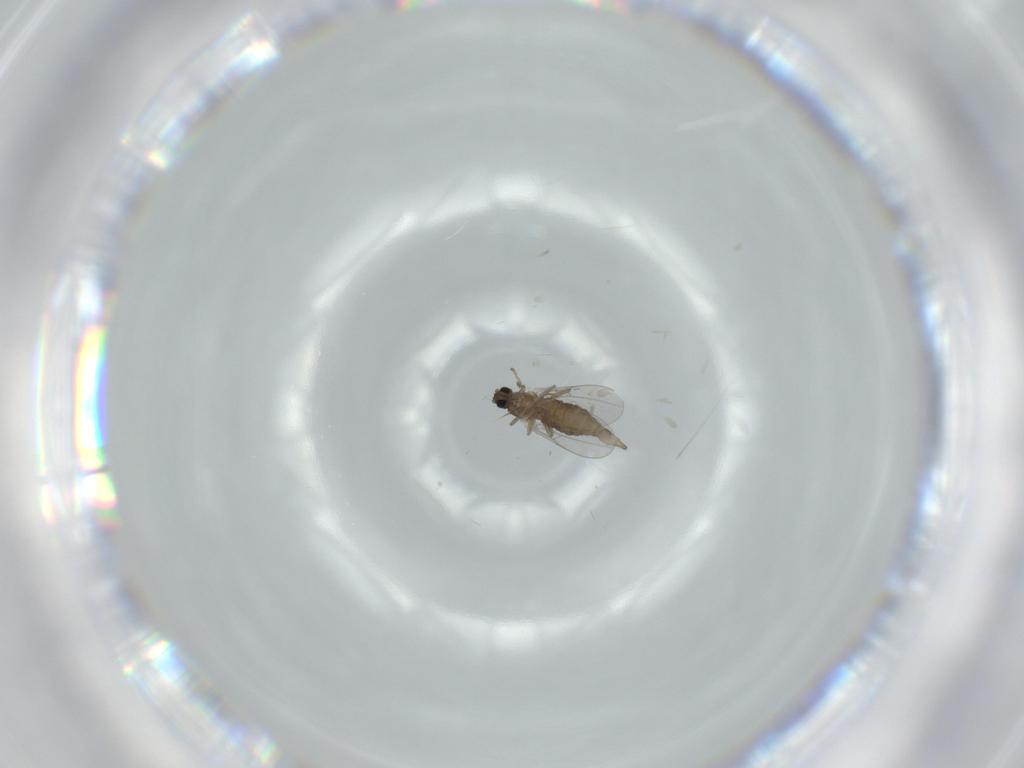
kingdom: Animalia
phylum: Arthropoda
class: Insecta
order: Diptera
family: Cecidomyiidae
